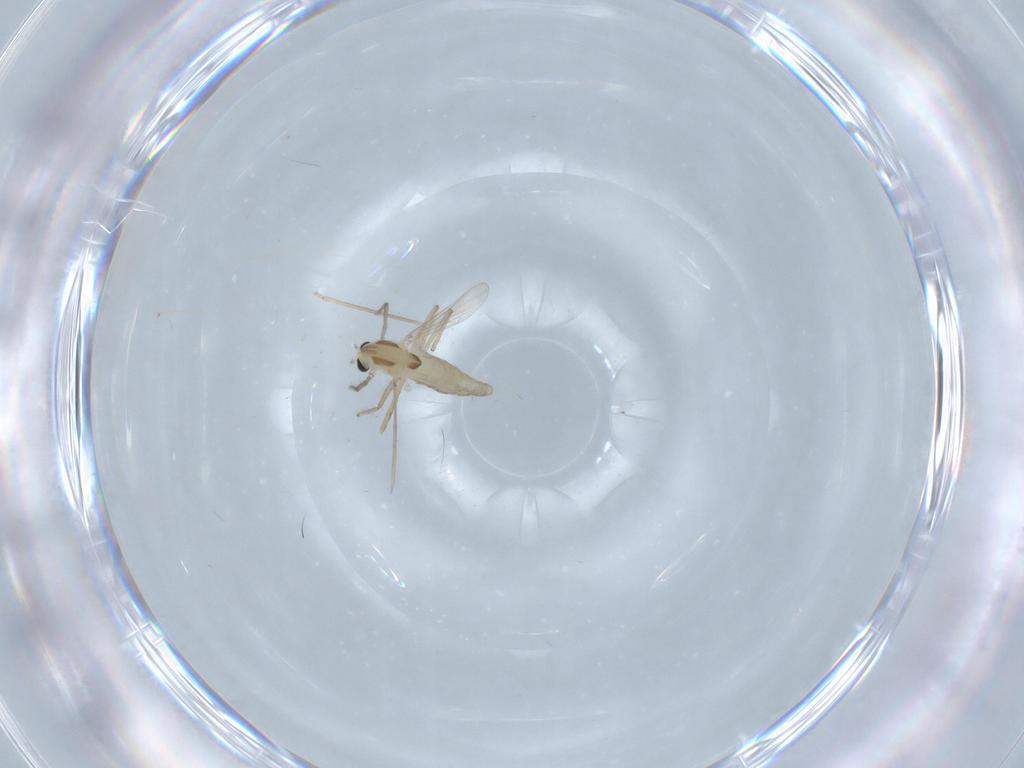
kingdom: Animalia
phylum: Arthropoda
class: Insecta
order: Diptera
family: Chironomidae
